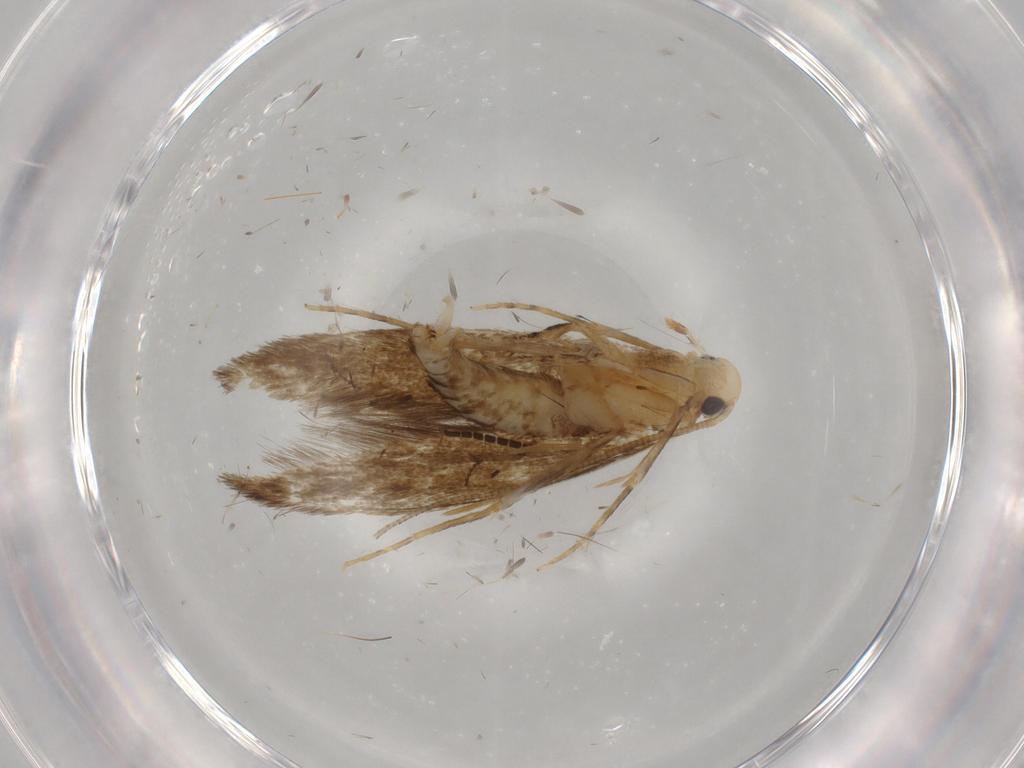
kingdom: Animalia
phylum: Arthropoda
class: Insecta
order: Lepidoptera
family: Tineidae
